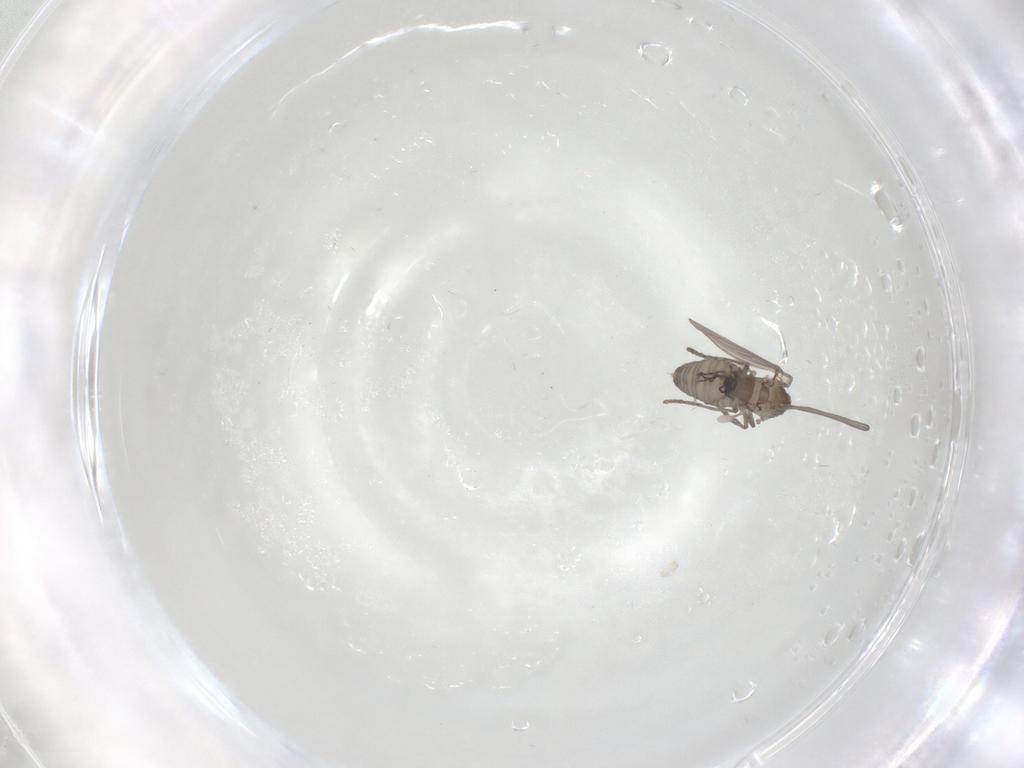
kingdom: Animalia
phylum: Arthropoda
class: Insecta
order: Diptera
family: Psychodidae
